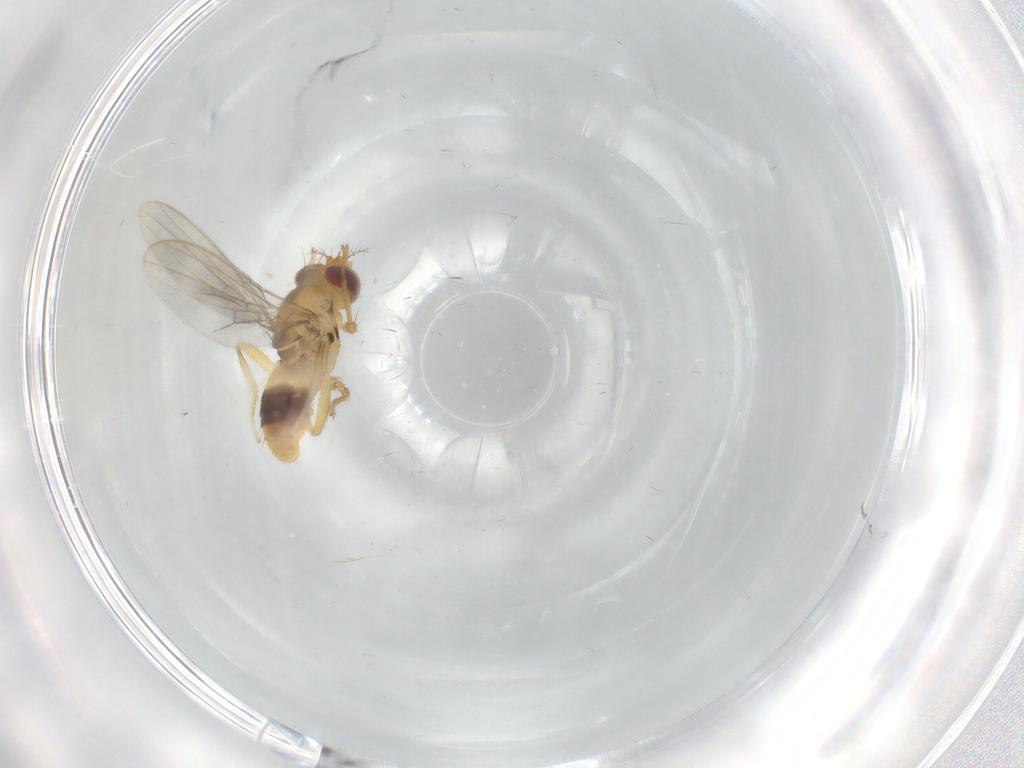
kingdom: Animalia
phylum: Arthropoda
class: Insecta
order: Diptera
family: Periscelididae
